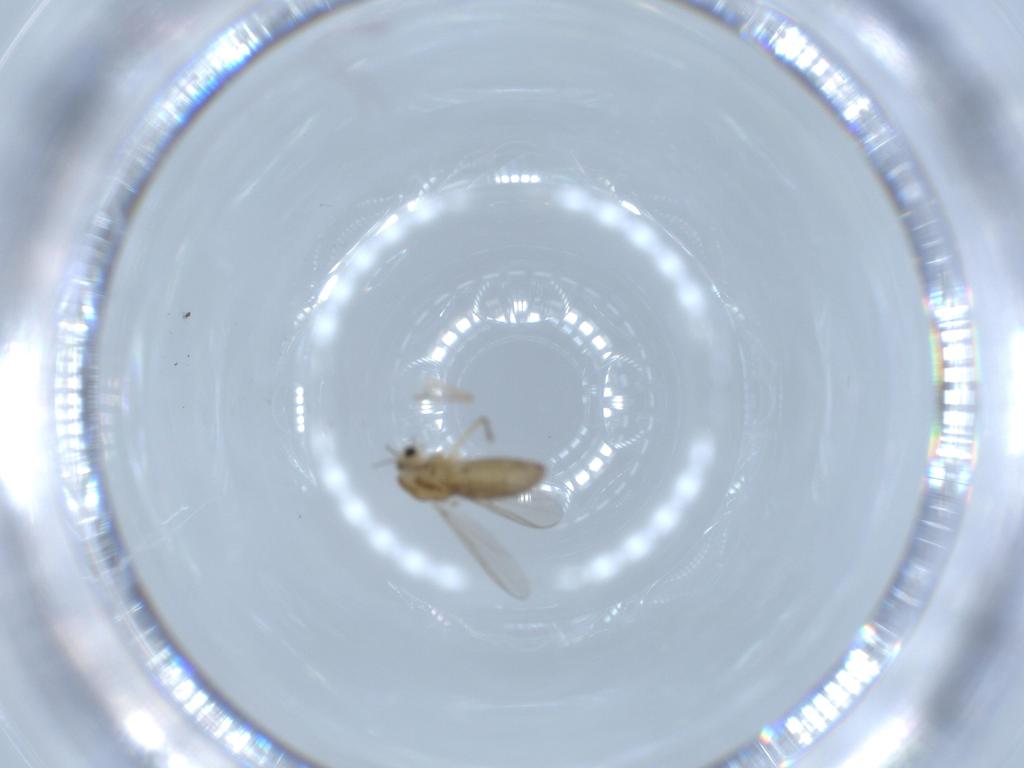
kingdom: Animalia
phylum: Arthropoda
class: Insecta
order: Diptera
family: Chironomidae
